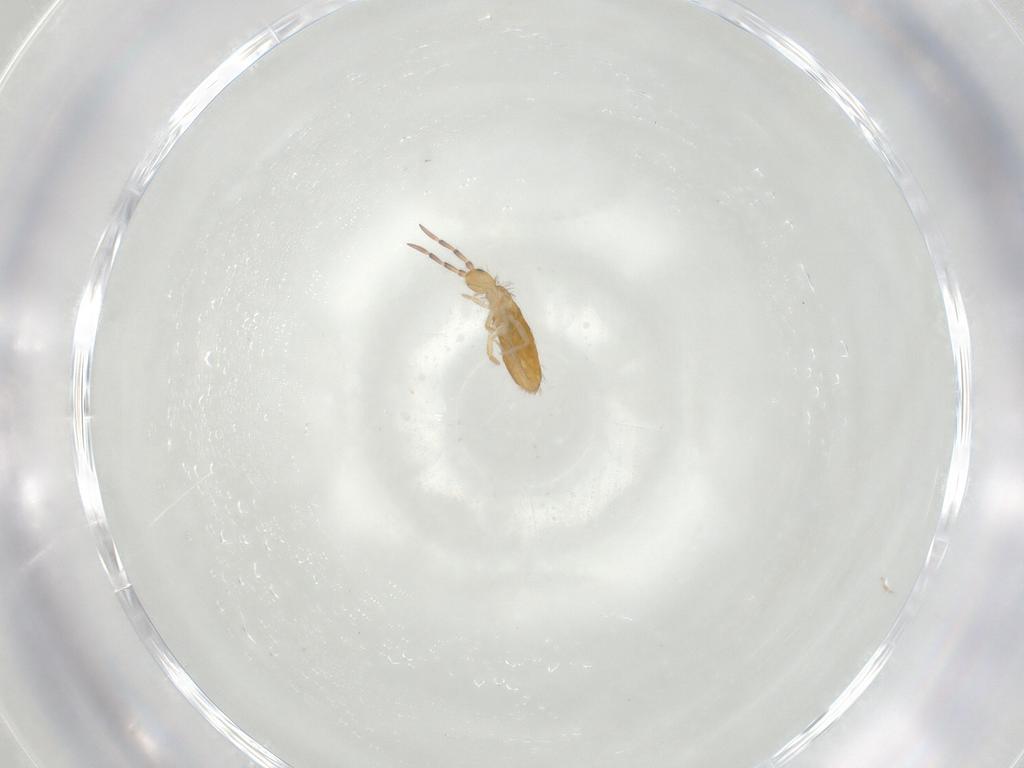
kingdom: Animalia
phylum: Arthropoda
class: Collembola
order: Entomobryomorpha
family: Entomobryidae
